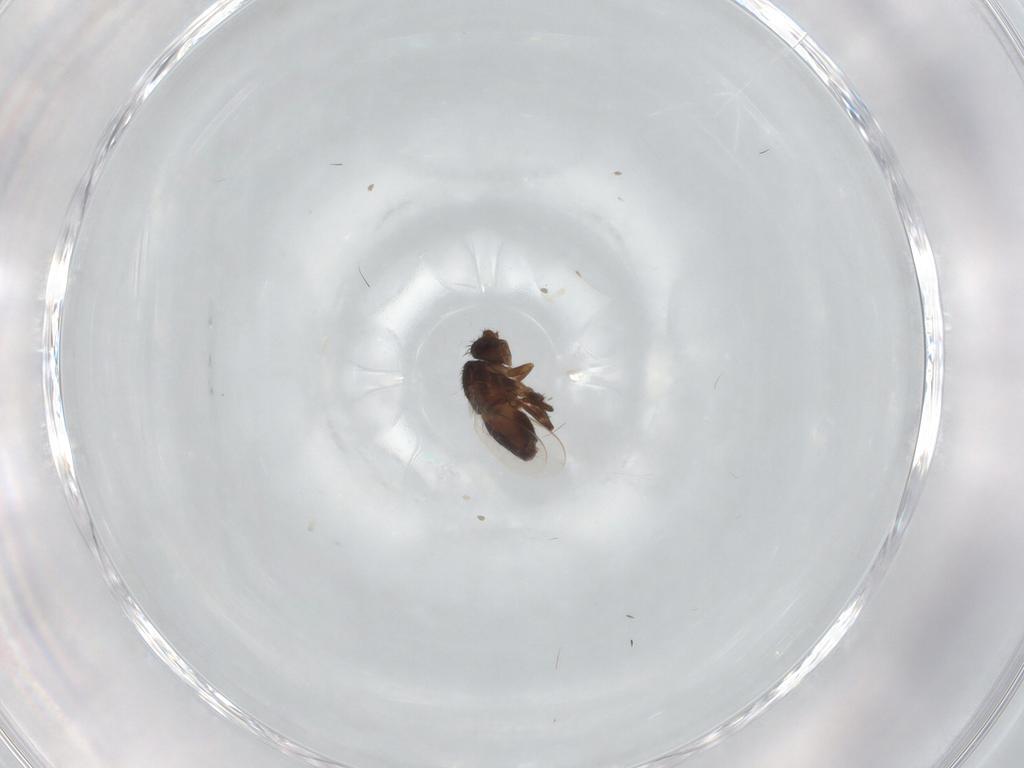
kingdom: Animalia
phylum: Arthropoda
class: Insecta
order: Diptera
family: Sphaeroceridae
